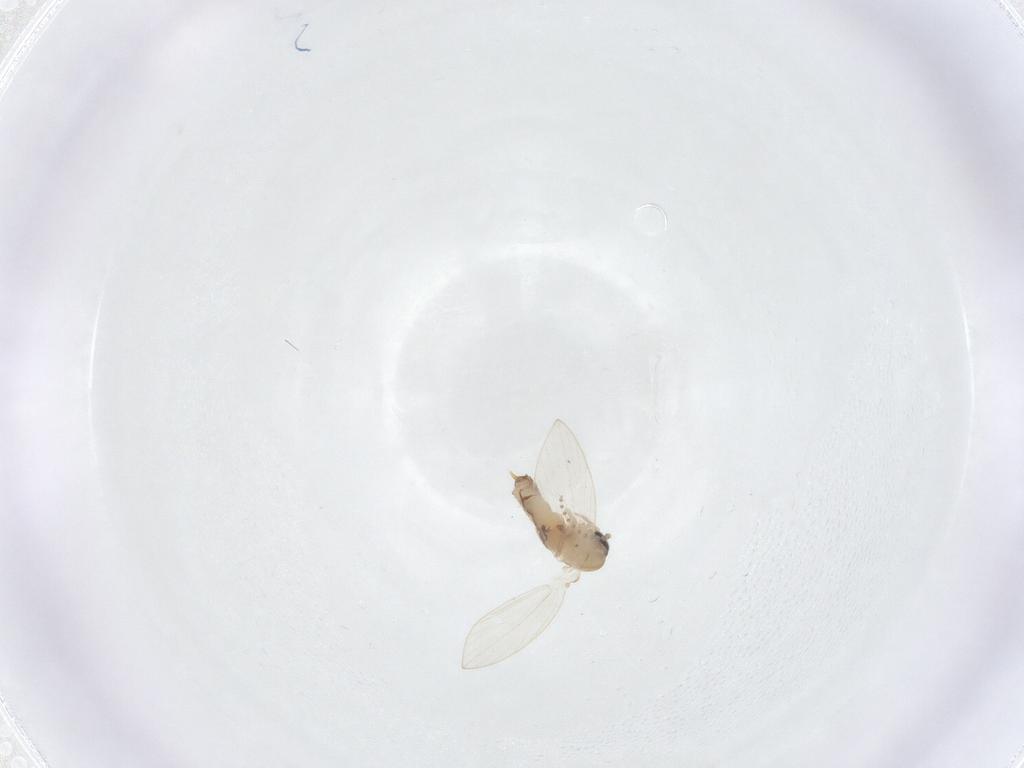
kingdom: Animalia
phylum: Arthropoda
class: Insecta
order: Diptera
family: Psychodidae
